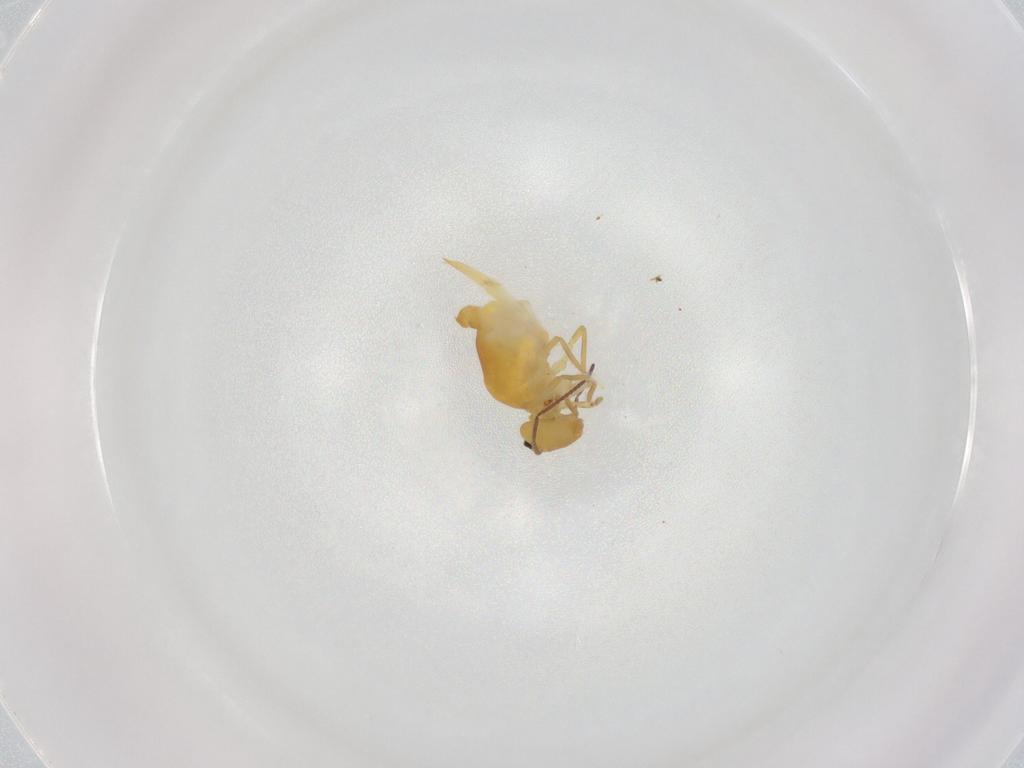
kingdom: Animalia
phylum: Arthropoda
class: Collembola
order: Symphypleona
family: Bourletiellidae
